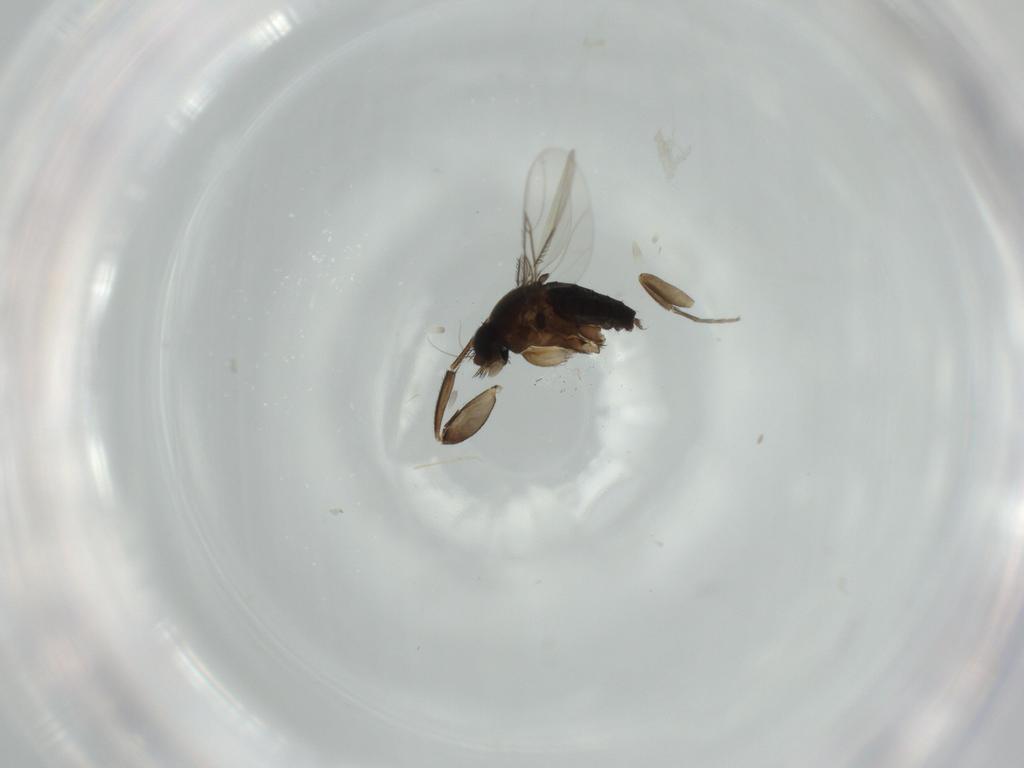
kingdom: Animalia
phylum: Arthropoda
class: Insecta
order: Diptera
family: Phoridae
